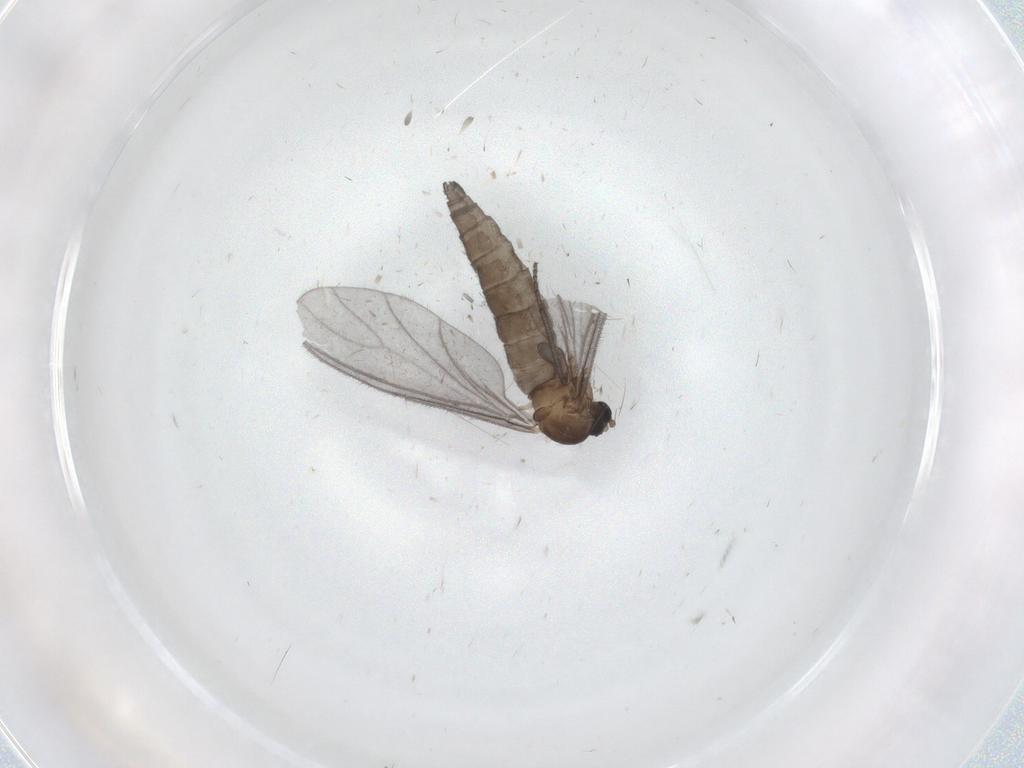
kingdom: Animalia
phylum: Arthropoda
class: Insecta
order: Diptera
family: Sciaridae
